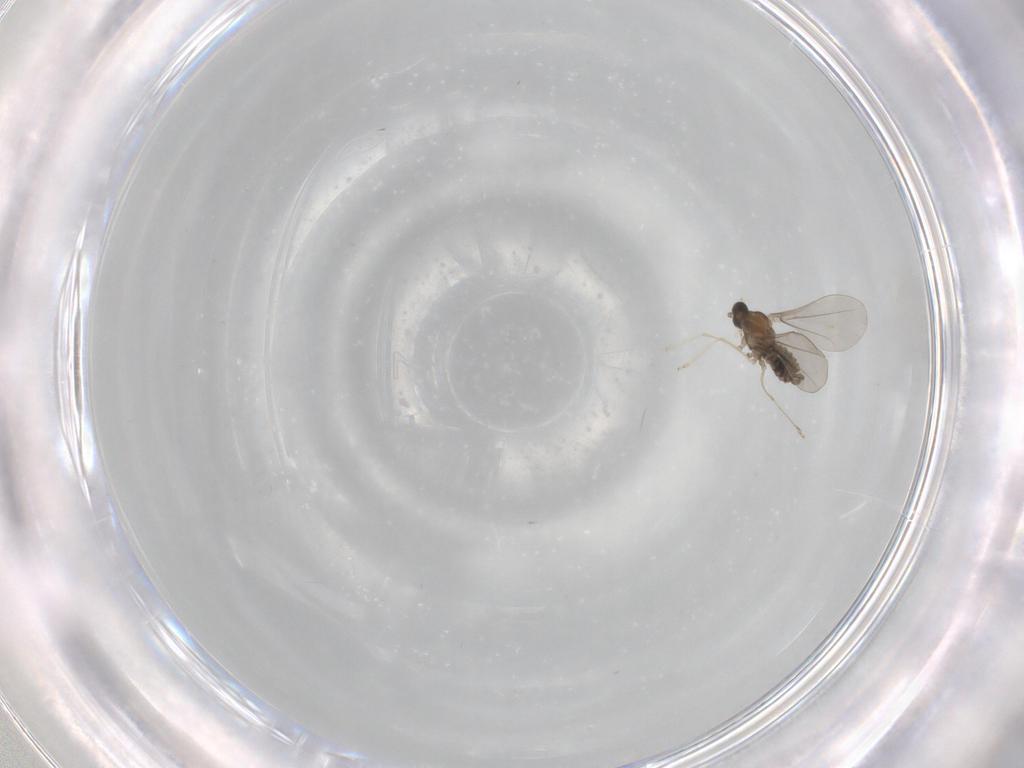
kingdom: Animalia
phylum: Arthropoda
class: Insecta
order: Diptera
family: Cecidomyiidae
